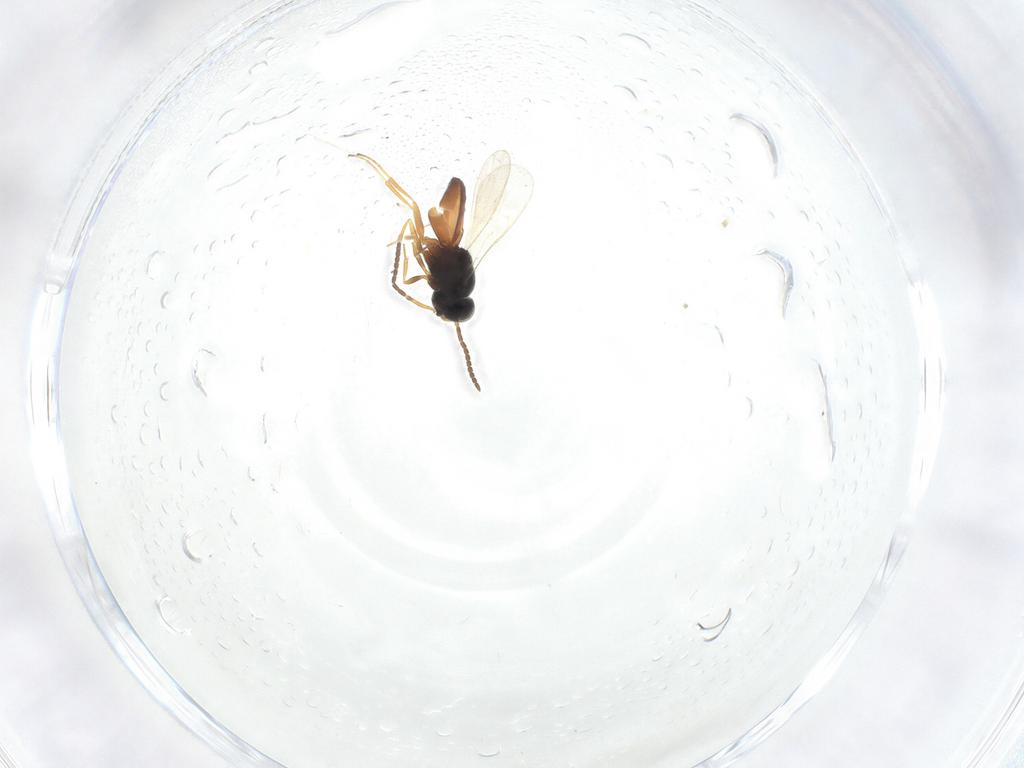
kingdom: Animalia
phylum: Arthropoda
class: Insecta
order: Hymenoptera
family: Scelionidae
